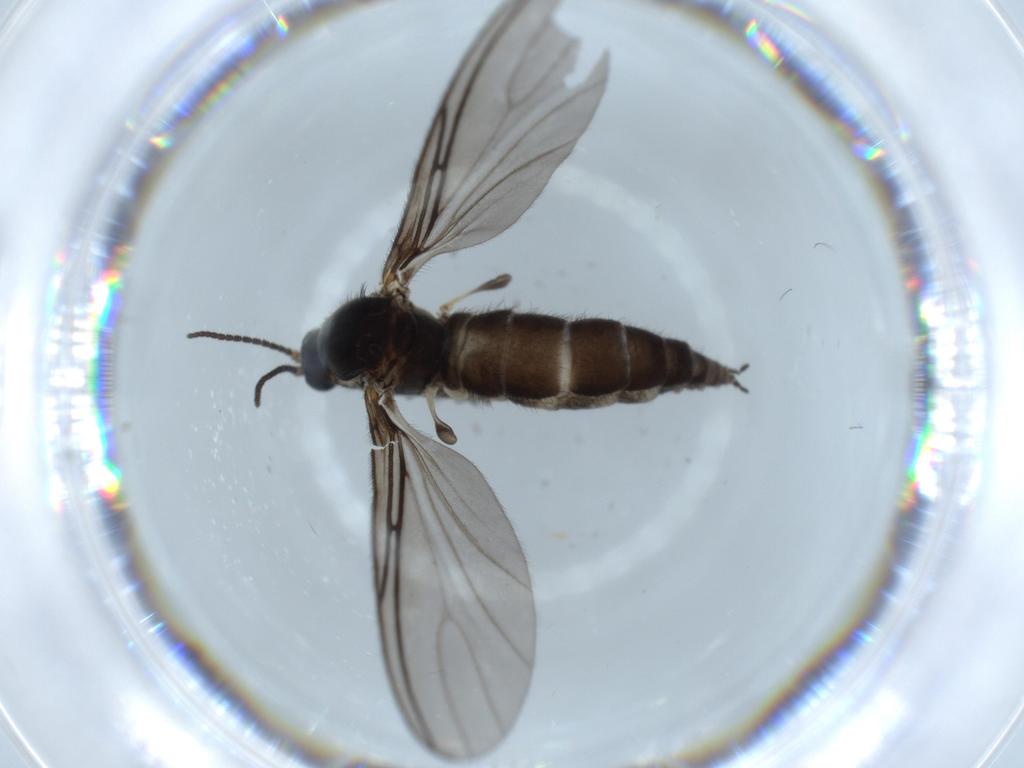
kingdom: Animalia
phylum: Arthropoda
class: Insecta
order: Diptera
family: Sciaridae
